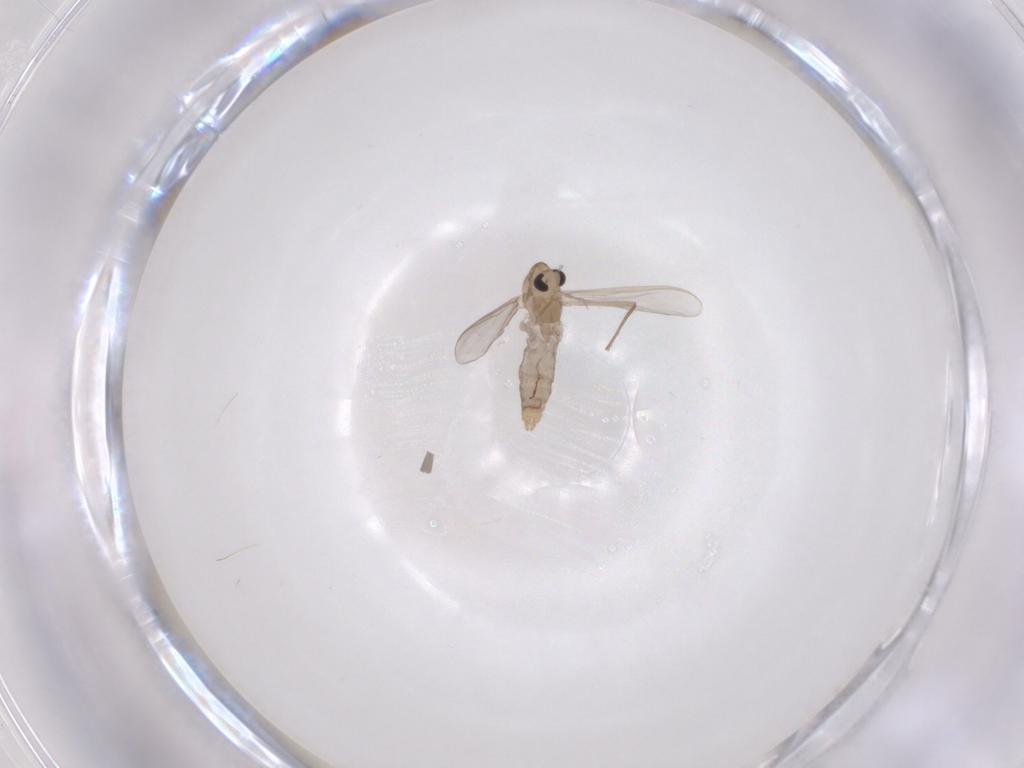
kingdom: Animalia
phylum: Arthropoda
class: Insecta
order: Diptera
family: Chironomidae
